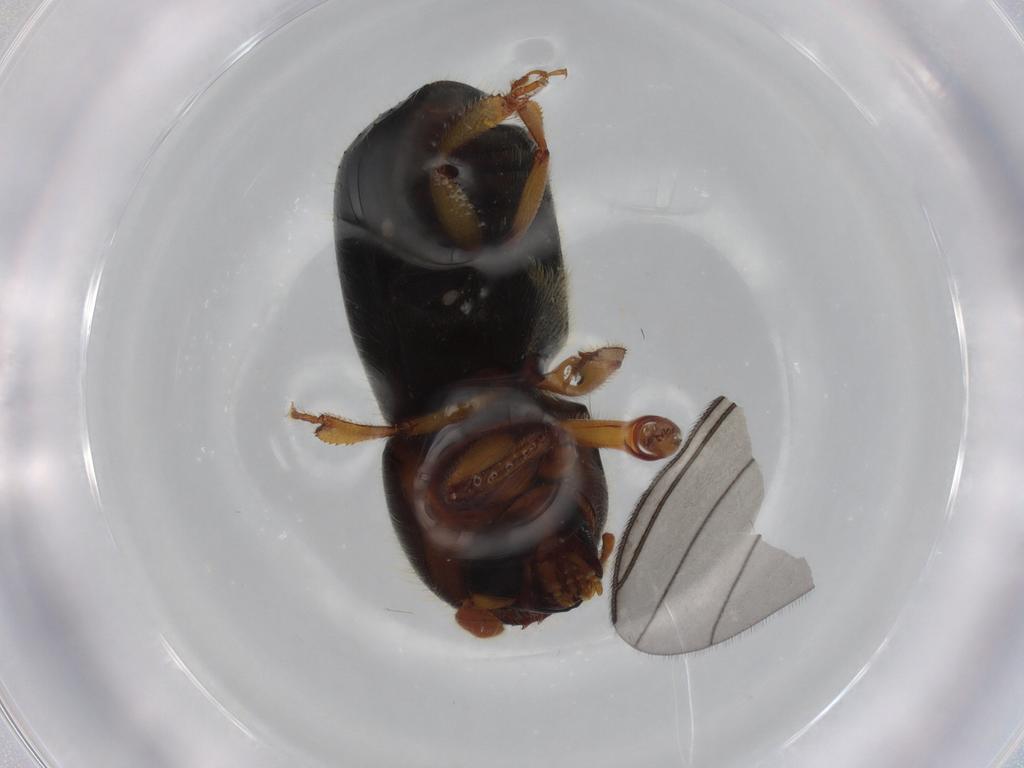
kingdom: Animalia
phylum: Arthropoda
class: Insecta
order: Coleoptera
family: Curculionidae
